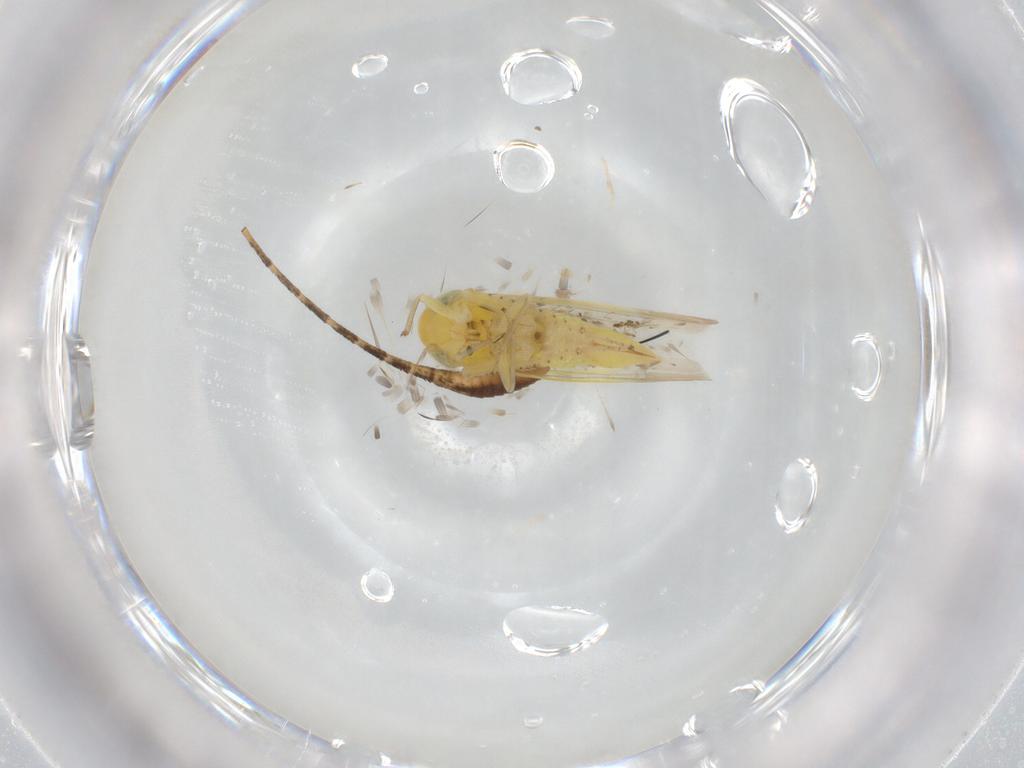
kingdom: Animalia
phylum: Arthropoda
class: Insecta
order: Hemiptera
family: Cicadellidae
